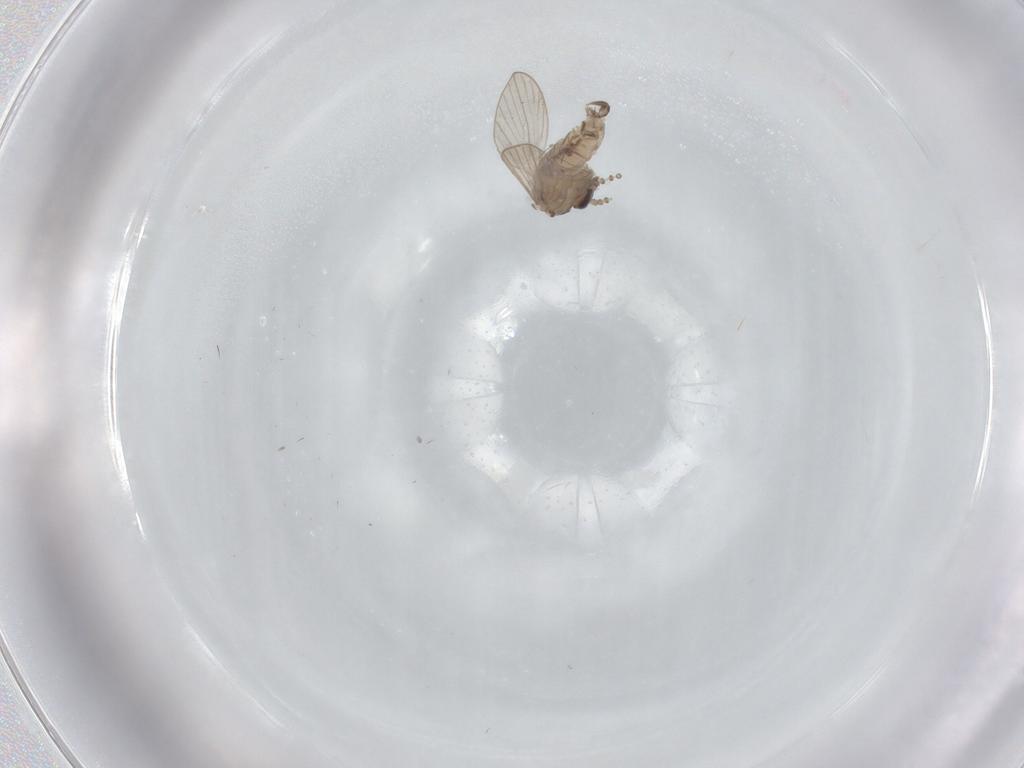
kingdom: Animalia
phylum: Arthropoda
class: Insecta
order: Diptera
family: Psychodidae
